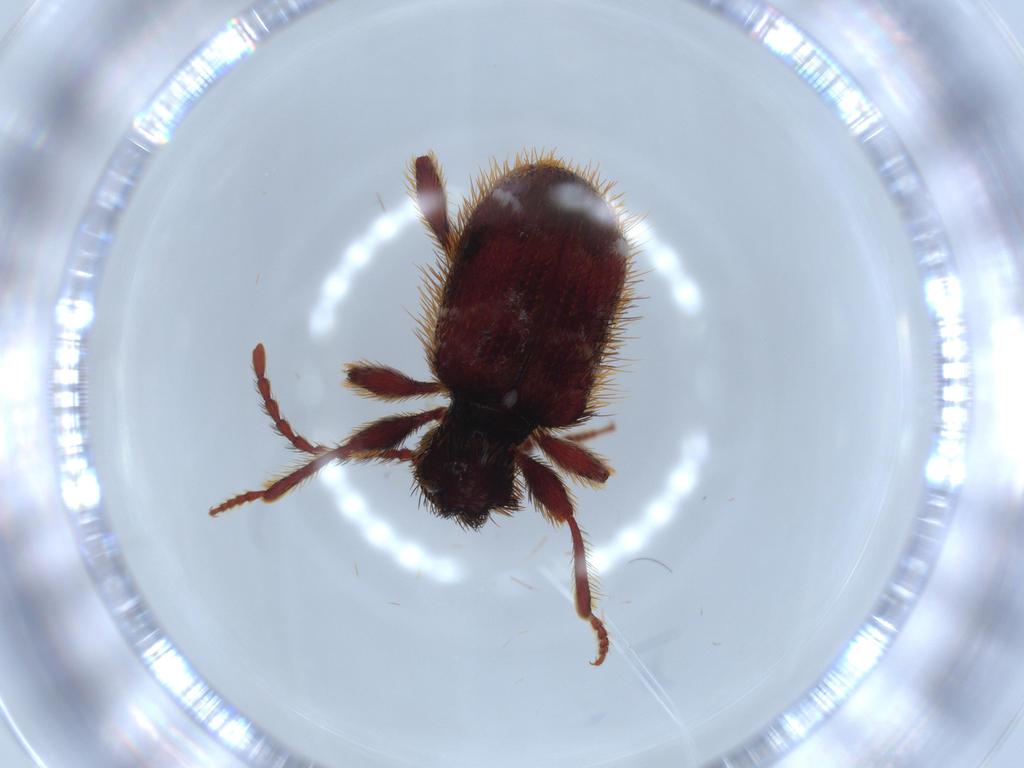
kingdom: Animalia
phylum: Arthropoda
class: Insecta
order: Coleoptera
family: Ptinidae
